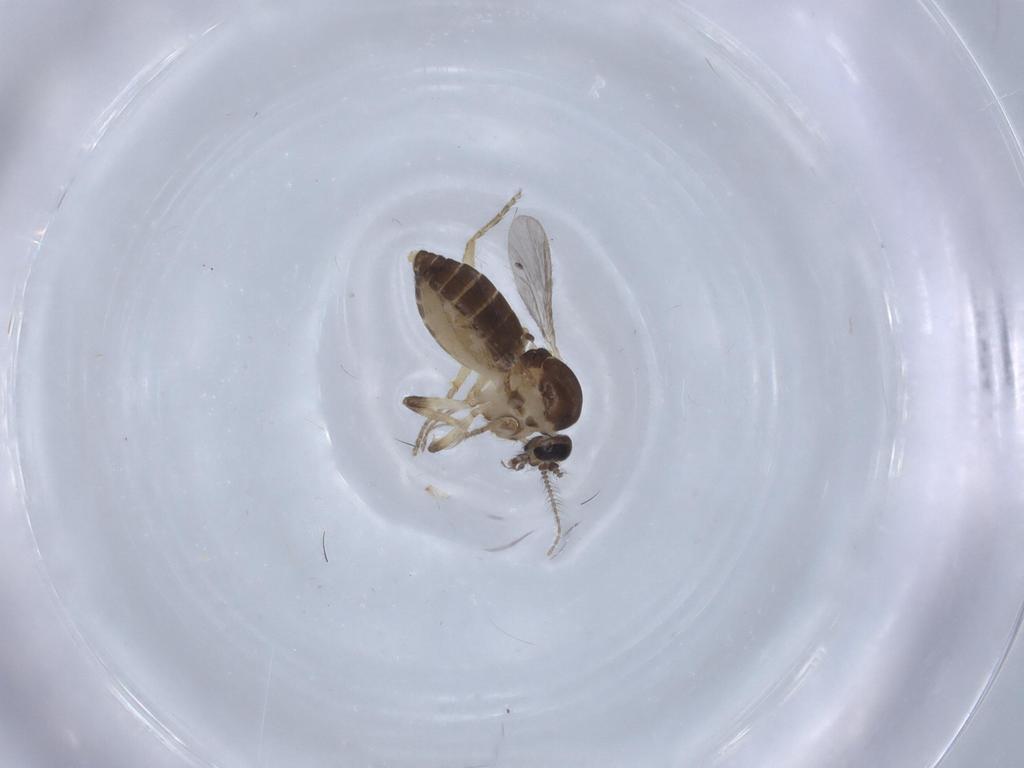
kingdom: Animalia
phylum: Arthropoda
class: Insecta
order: Diptera
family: Ceratopogonidae
